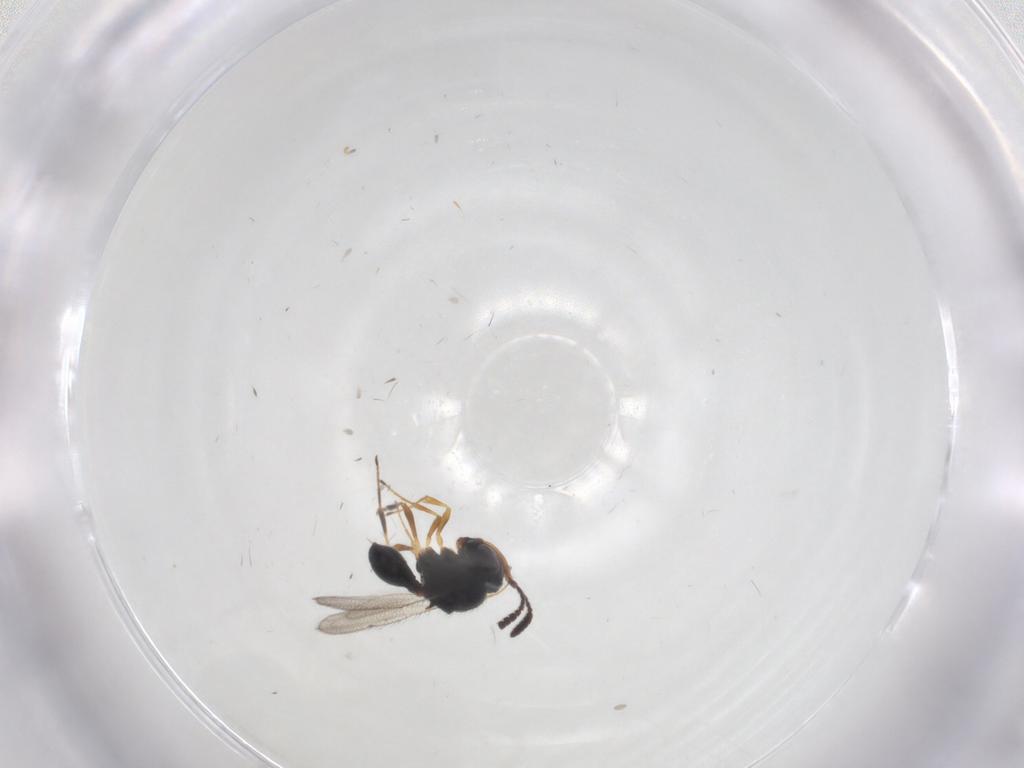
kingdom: Animalia
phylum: Arthropoda
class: Insecta
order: Hymenoptera
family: Scelionidae
